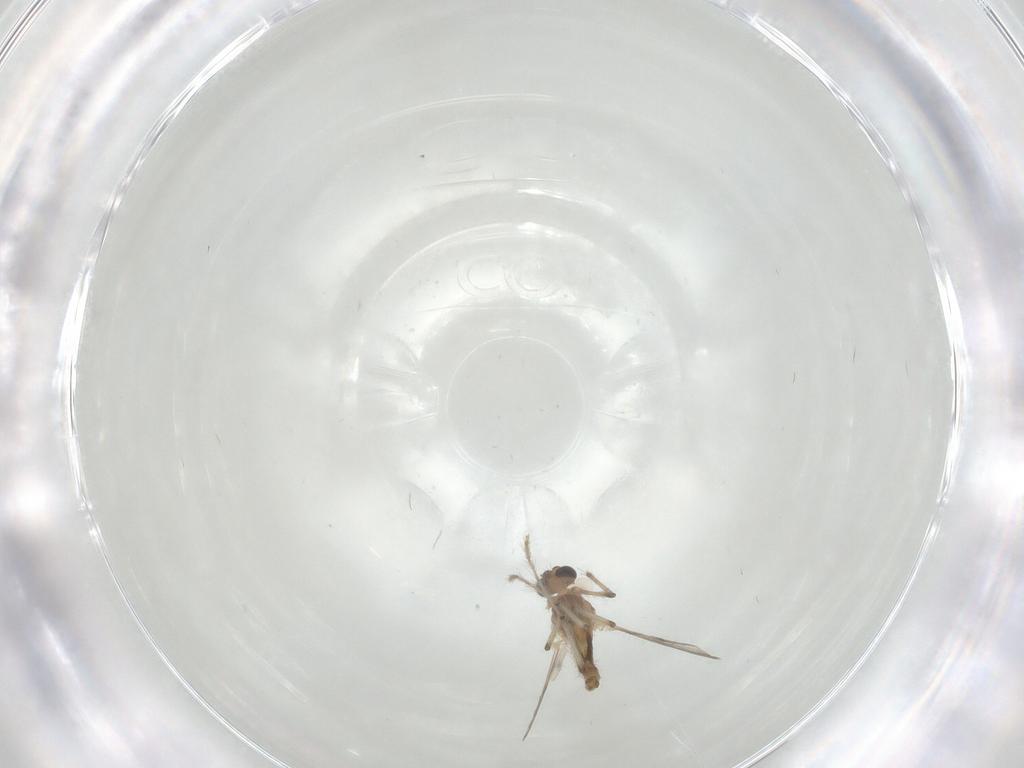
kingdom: Animalia
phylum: Arthropoda
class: Insecta
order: Diptera
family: Chironomidae
